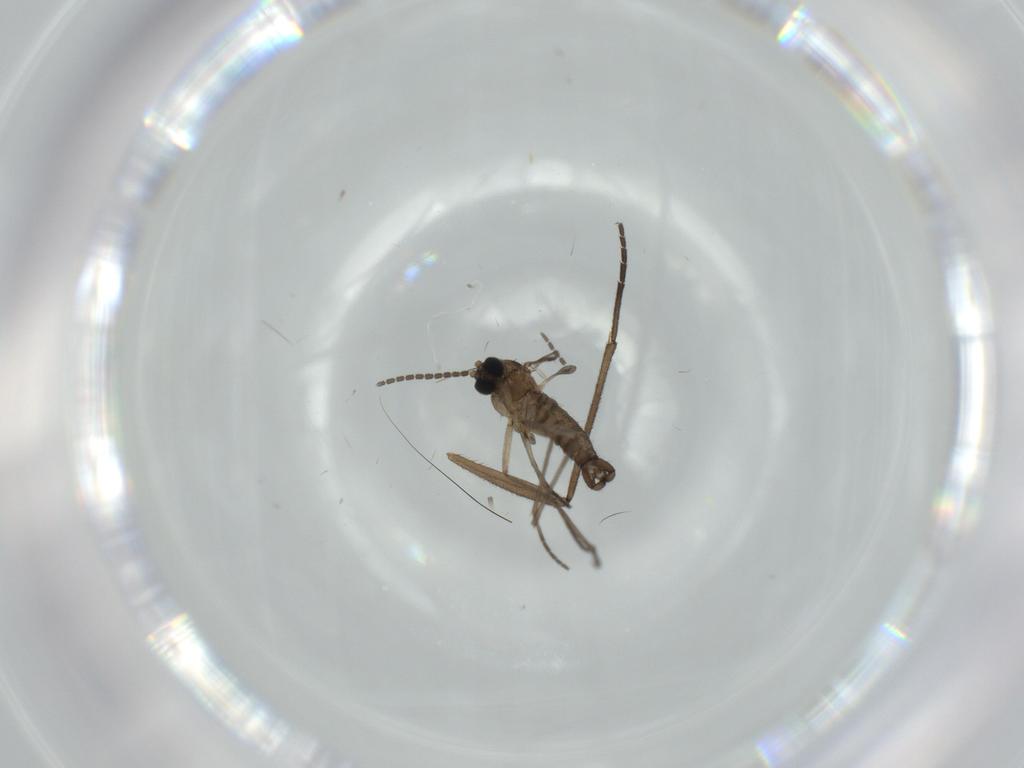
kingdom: Animalia
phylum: Arthropoda
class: Insecta
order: Diptera
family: Sciaridae
